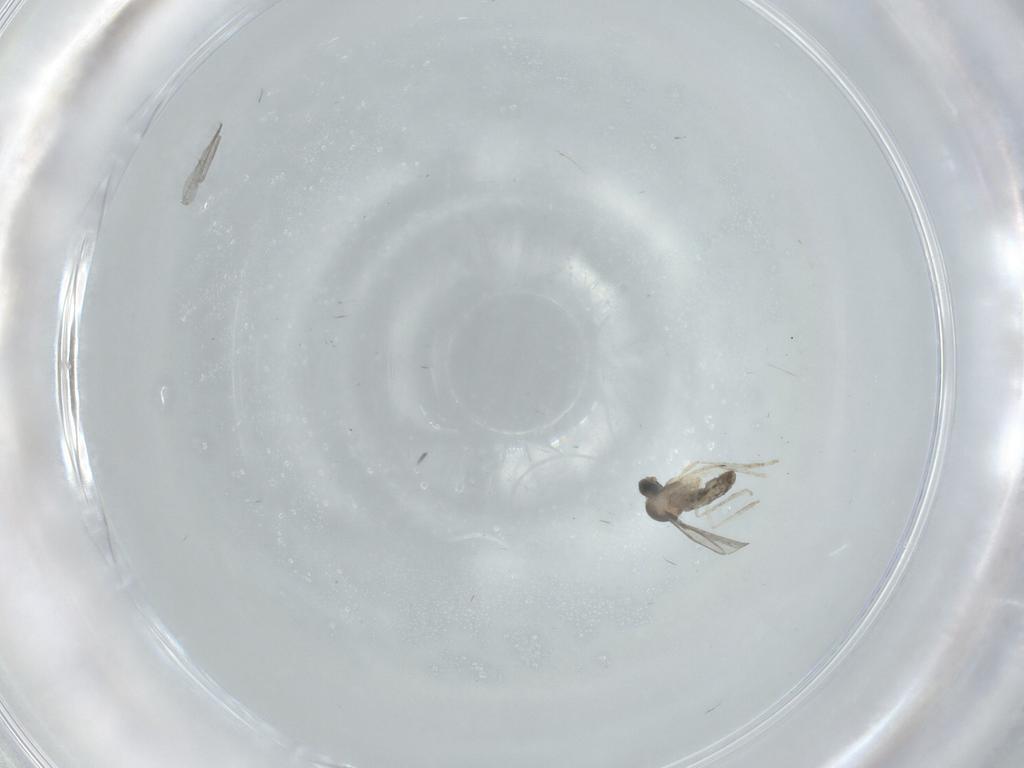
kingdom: Animalia
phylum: Arthropoda
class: Insecta
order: Diptera
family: Cecidomyiidae
